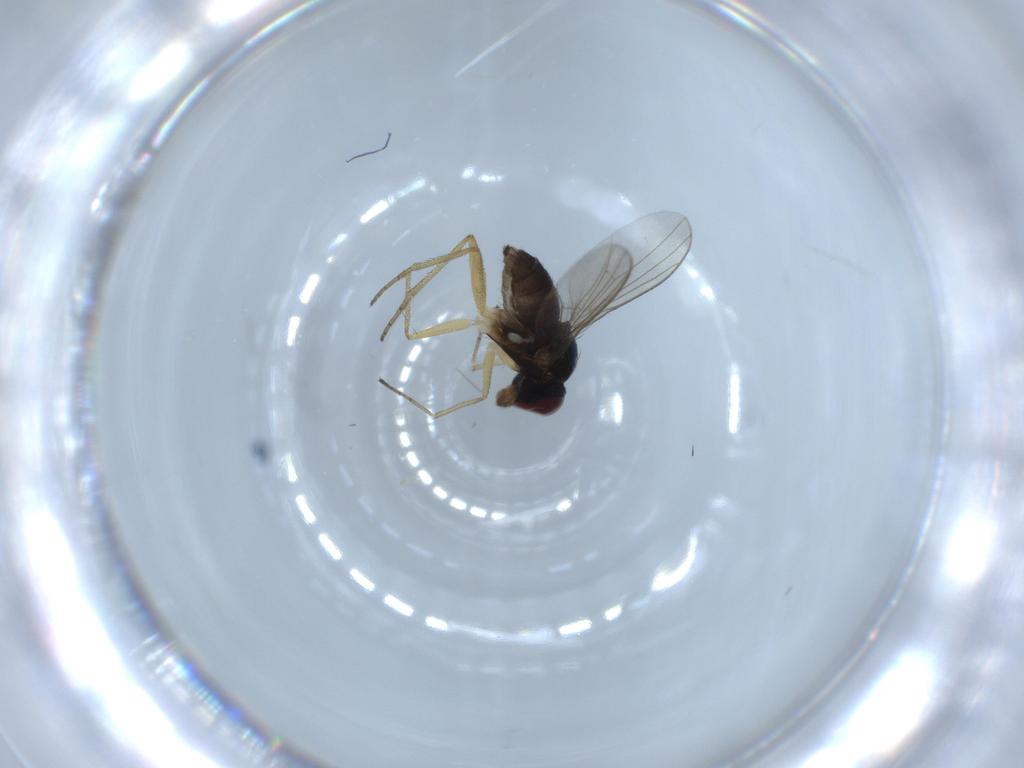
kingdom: Animalia
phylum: Arthropoda
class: Insecta
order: Diptera
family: Dolichopodidae
